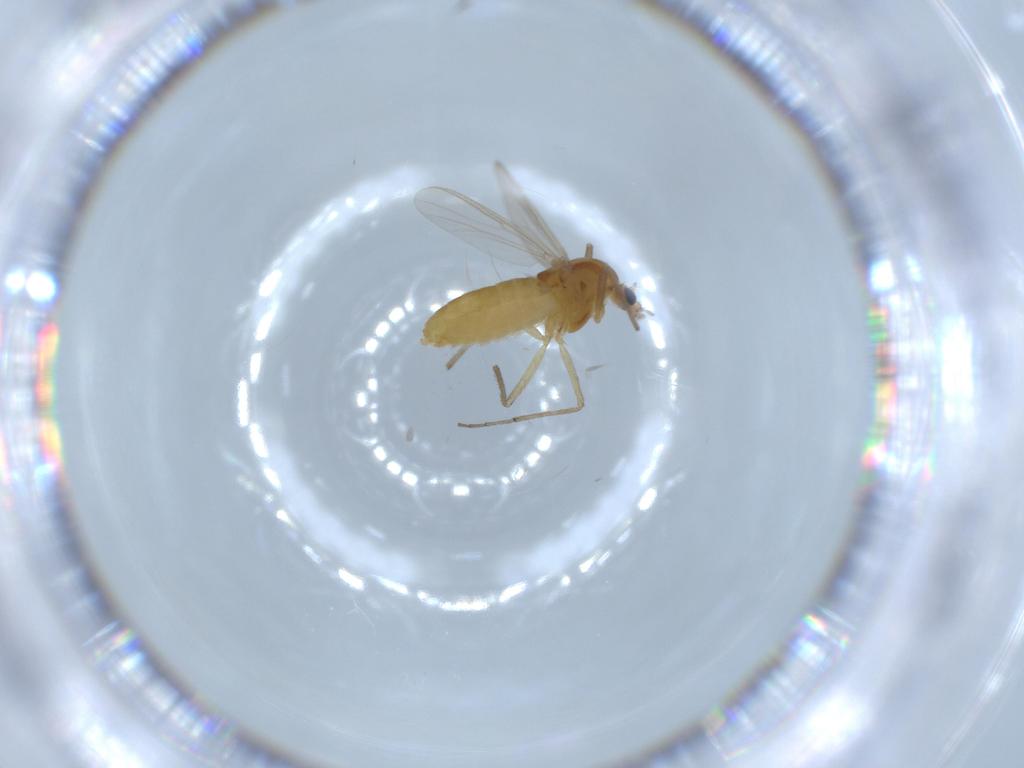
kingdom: Animalia
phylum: Arthropoda
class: Insecta
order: Diptera
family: Chironomidae
